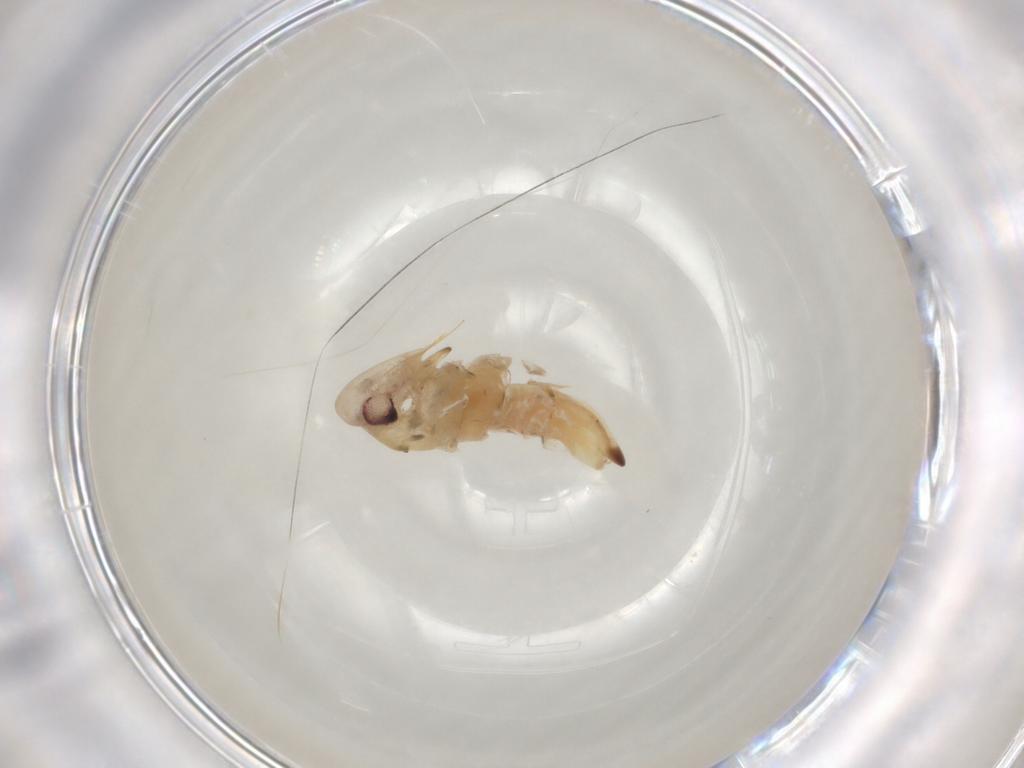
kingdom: Animalia
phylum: Arthropoda
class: Insecta
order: Hemiptera
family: Cicadellidae
